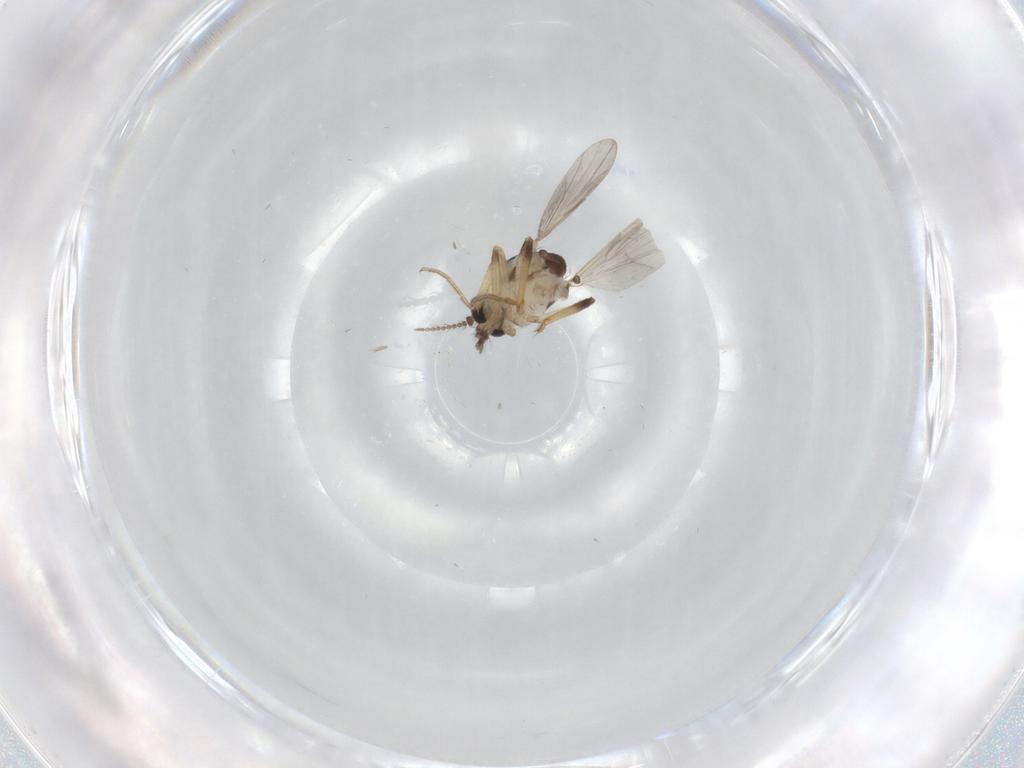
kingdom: Animalia
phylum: Arthropoda
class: Insecta
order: Diptera
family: Ceratopogonidae
